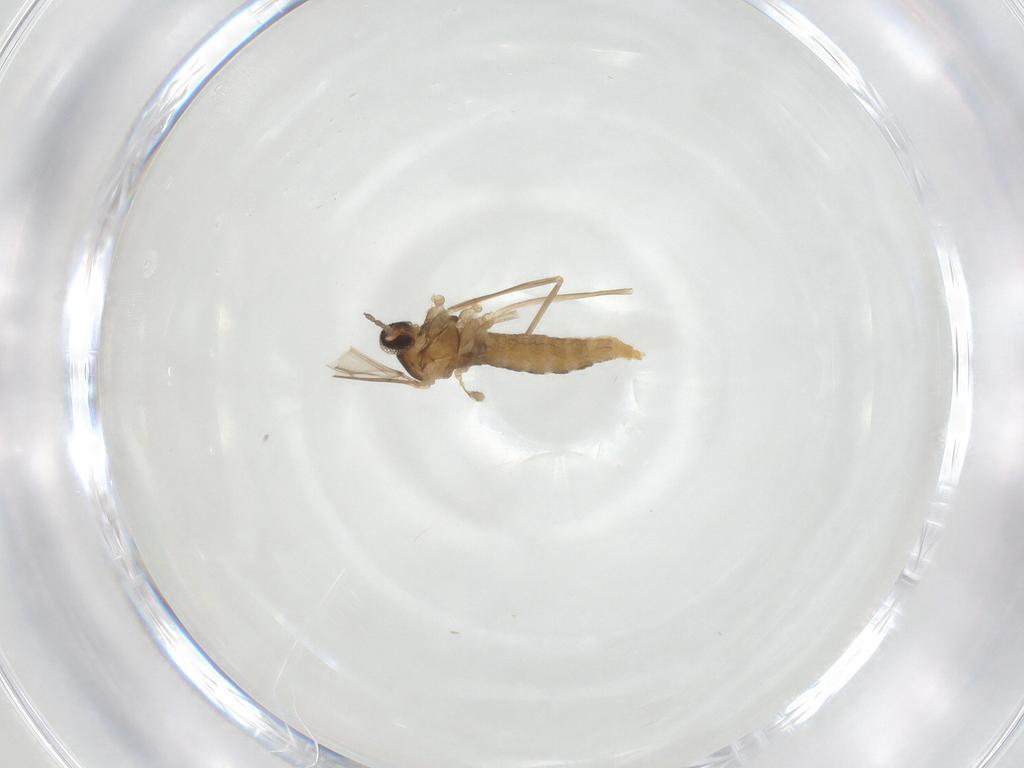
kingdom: Animalia
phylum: Arthropoda
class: Insecta
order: Diptera
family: Cecidomyiidae
